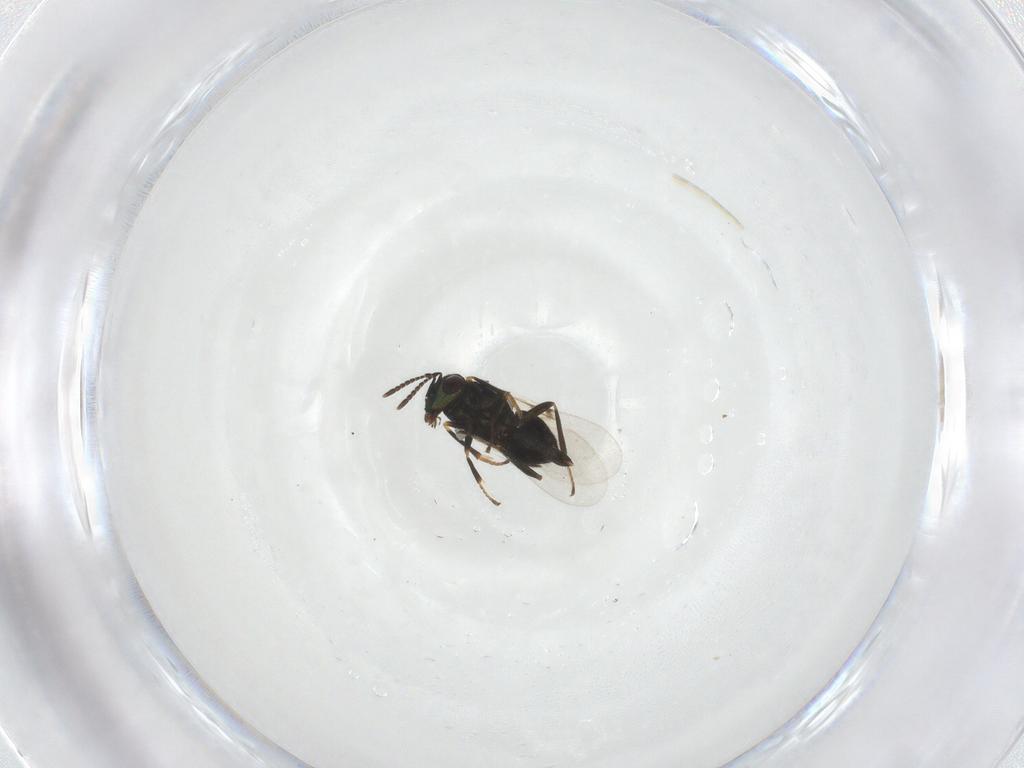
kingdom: Animalia
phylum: Arthropoda
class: Insecta
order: Hymenoptera
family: Encyrtidae
